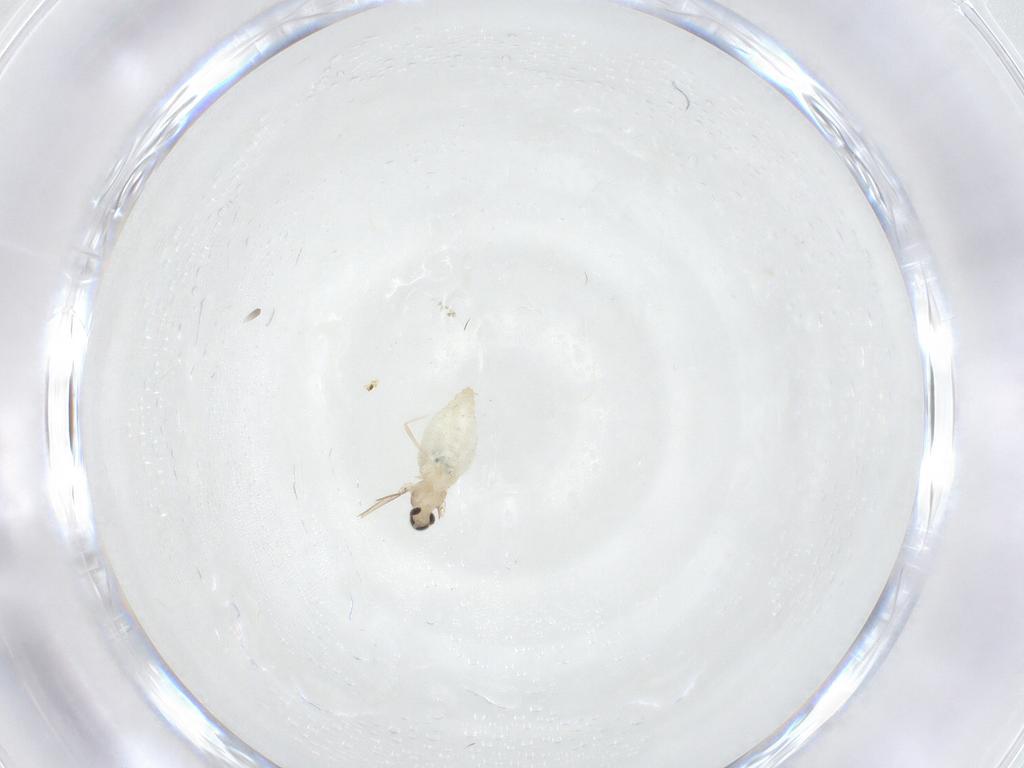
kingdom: Animalia
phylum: Arthropoda
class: Insecta
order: Diptera
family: Cecidomyiidae
